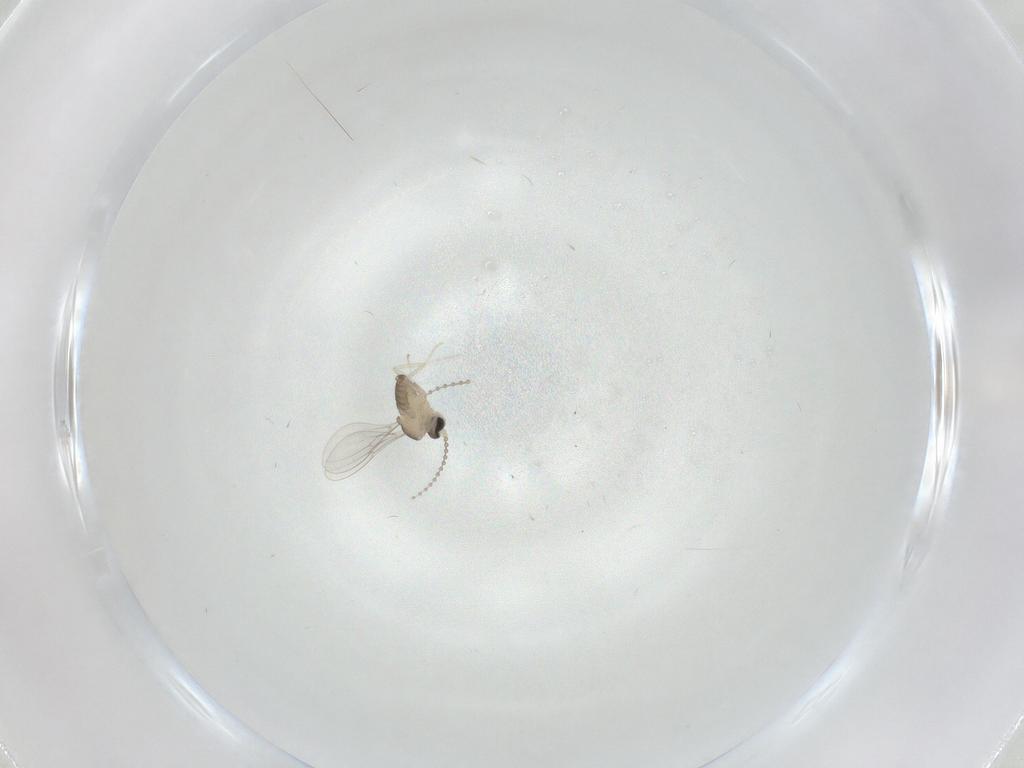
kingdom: Animalia
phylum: Arthropoda
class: Insecta
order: Diptera
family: Cecidomyiidae
